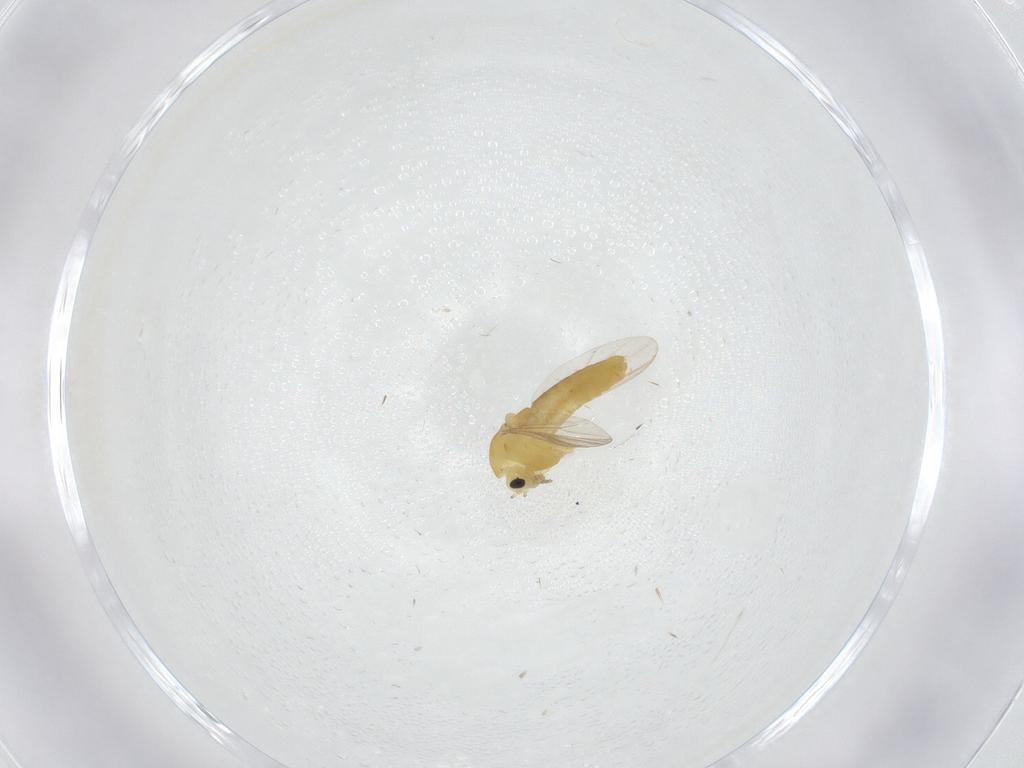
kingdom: Animalia
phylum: Arthropoda
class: Insecta
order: Diptera
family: Chironomidae
